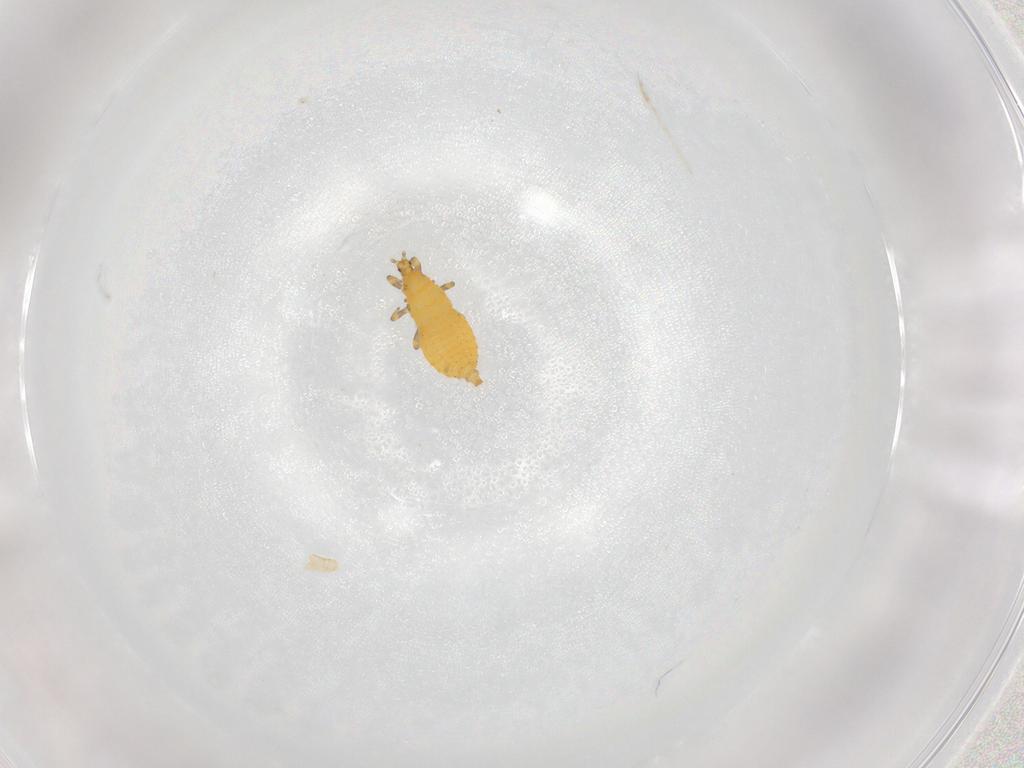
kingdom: Animalia
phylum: Arthropoda
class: Insecta
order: Thysanoptera
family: Thripidae
